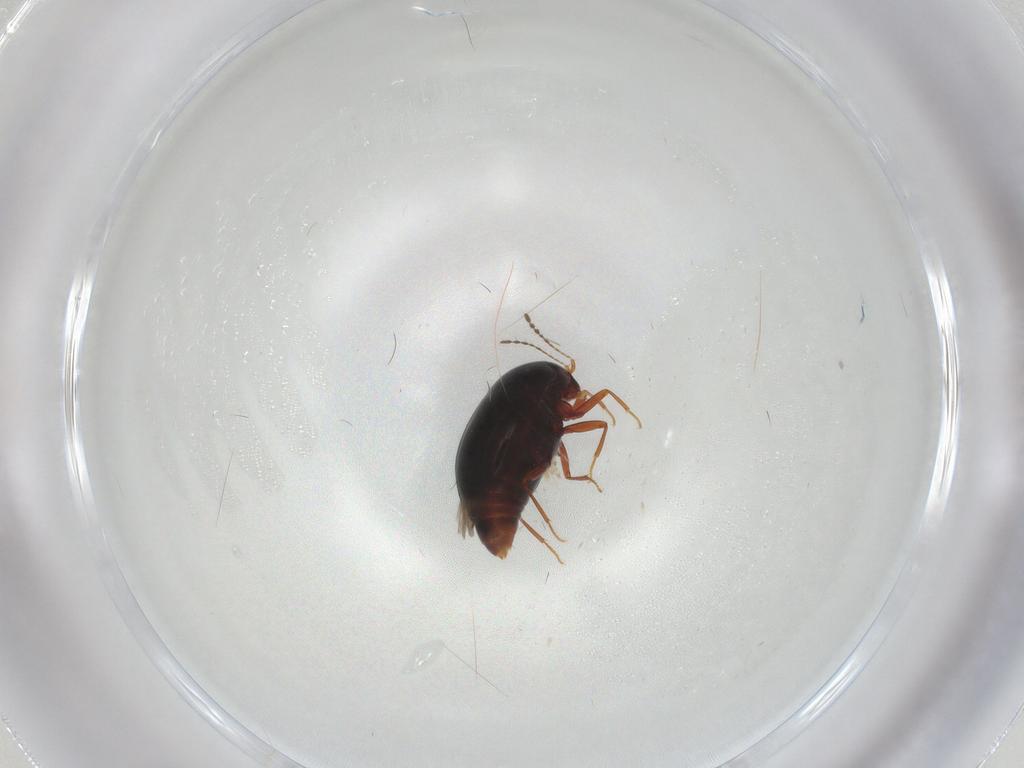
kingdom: Animalia
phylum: Arthropoda
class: Insecta
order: Coleoptera
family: Staphylinidae
